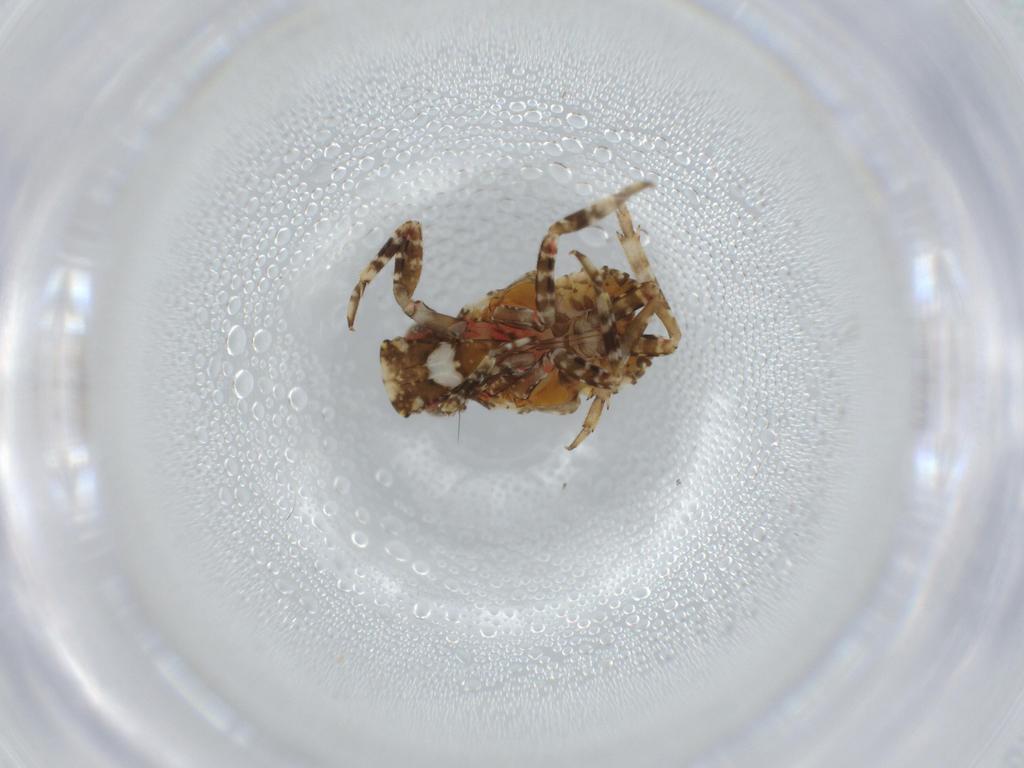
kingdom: Animalia
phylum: Arthropoda
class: Insecta
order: Hemiptera
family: Fulgoridae
